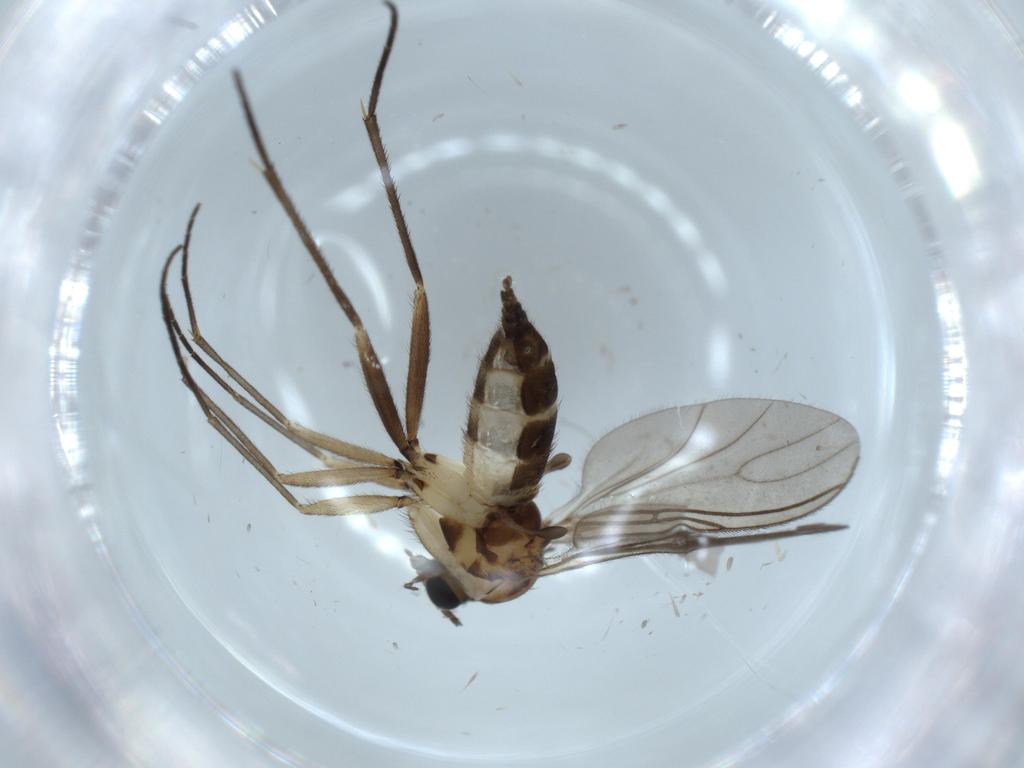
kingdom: Animalia
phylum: Arthropoda
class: Insecta
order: Diptera
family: Sciaridae
